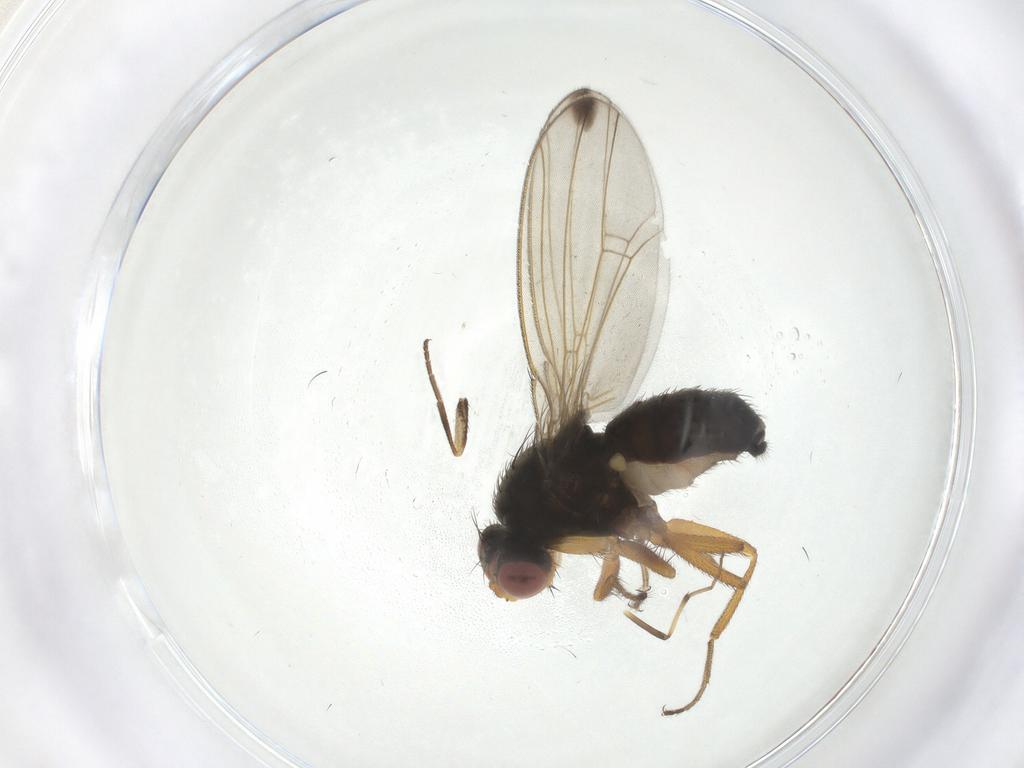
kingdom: Animalia
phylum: Arthropoda
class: Insecta
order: Diptera
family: Drosophilidae
